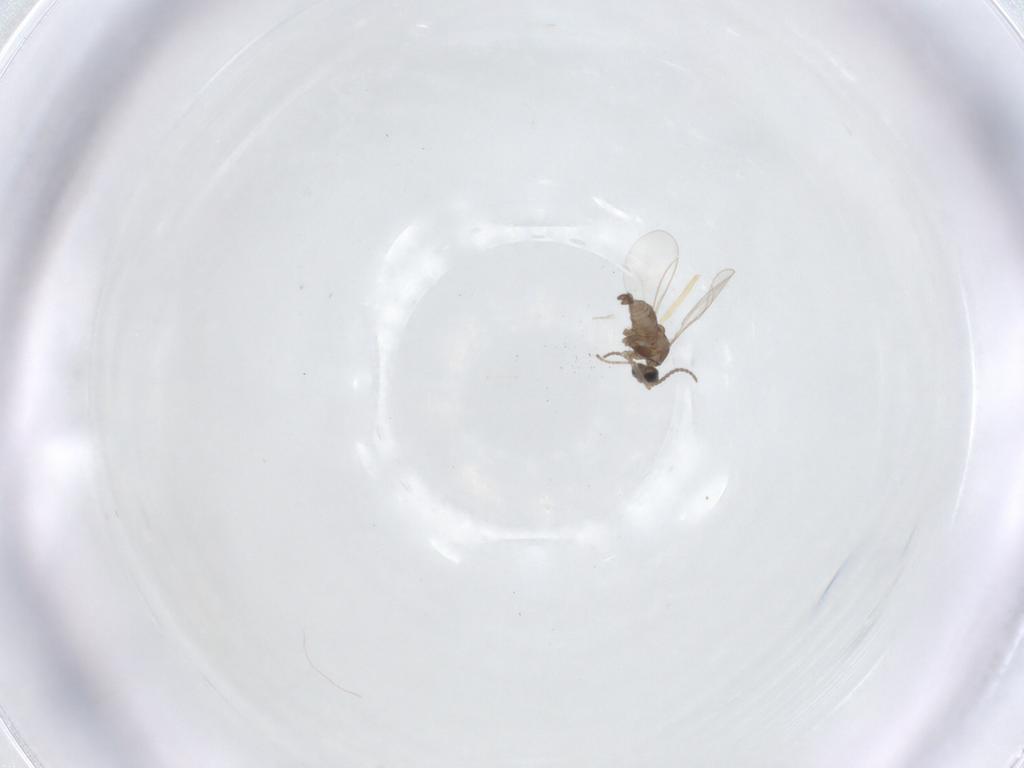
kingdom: Animalia
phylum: Arthropoda
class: Insecta
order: Diptera
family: Cecidomyiidae
